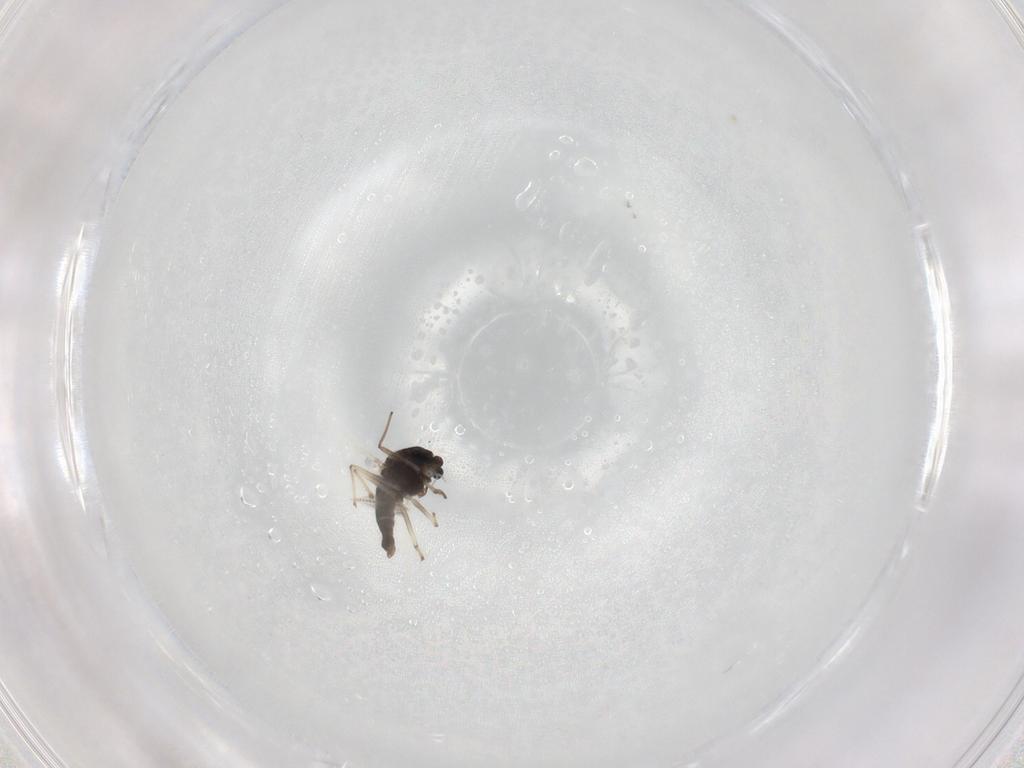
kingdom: Animalia
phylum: Arthropoda
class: Insecta
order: Diptera
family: Chironomidae
